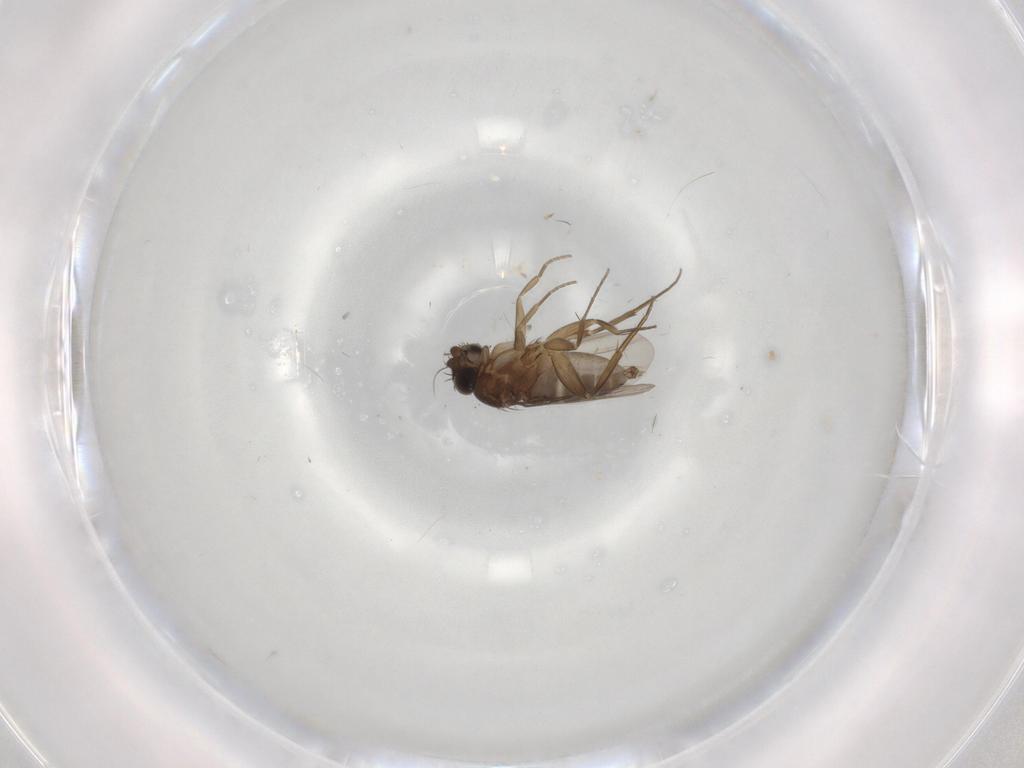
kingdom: Animalia
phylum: Arthropoda
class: Insecta
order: Diptera
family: Phoridae
